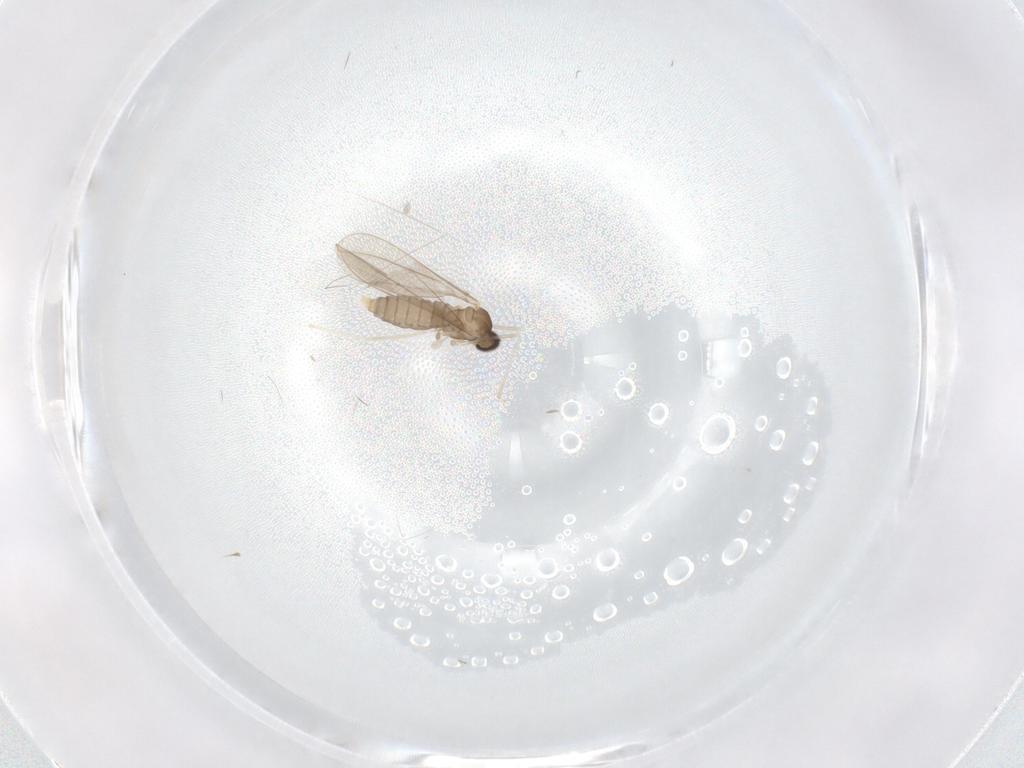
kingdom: Animalia
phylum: Arthropoda
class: Insecta
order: Diptera
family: Cecidomyiidae
